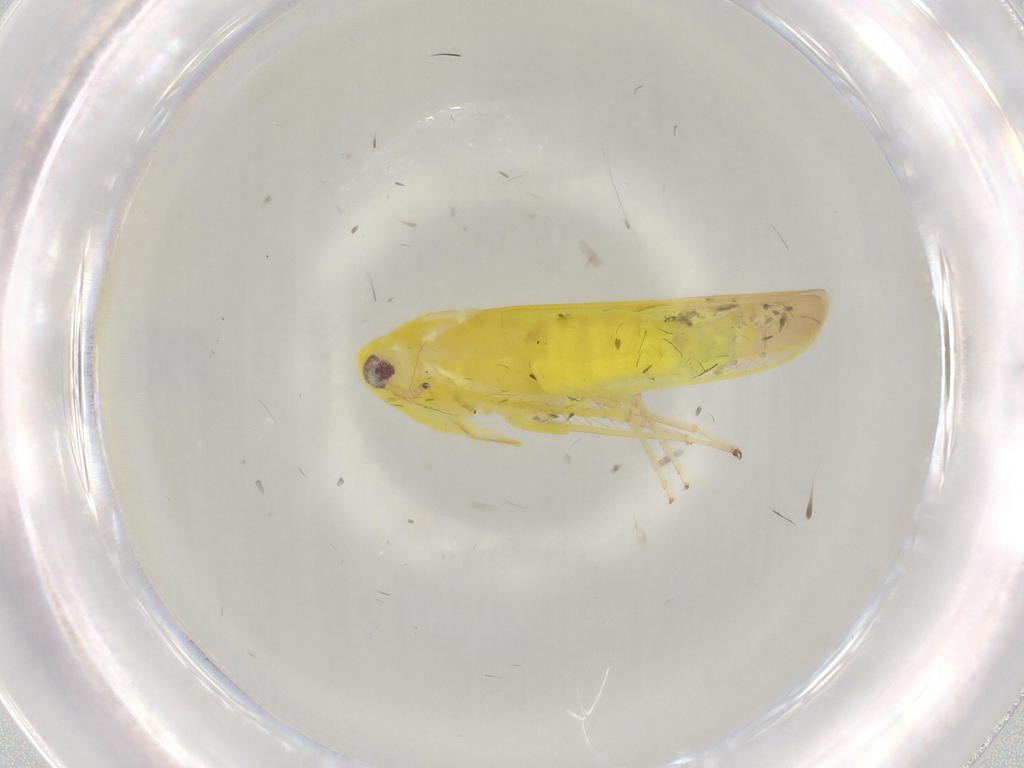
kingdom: Animalia
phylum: Arthropoda
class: Insecta
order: Hemiptera
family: Cicadellidae
